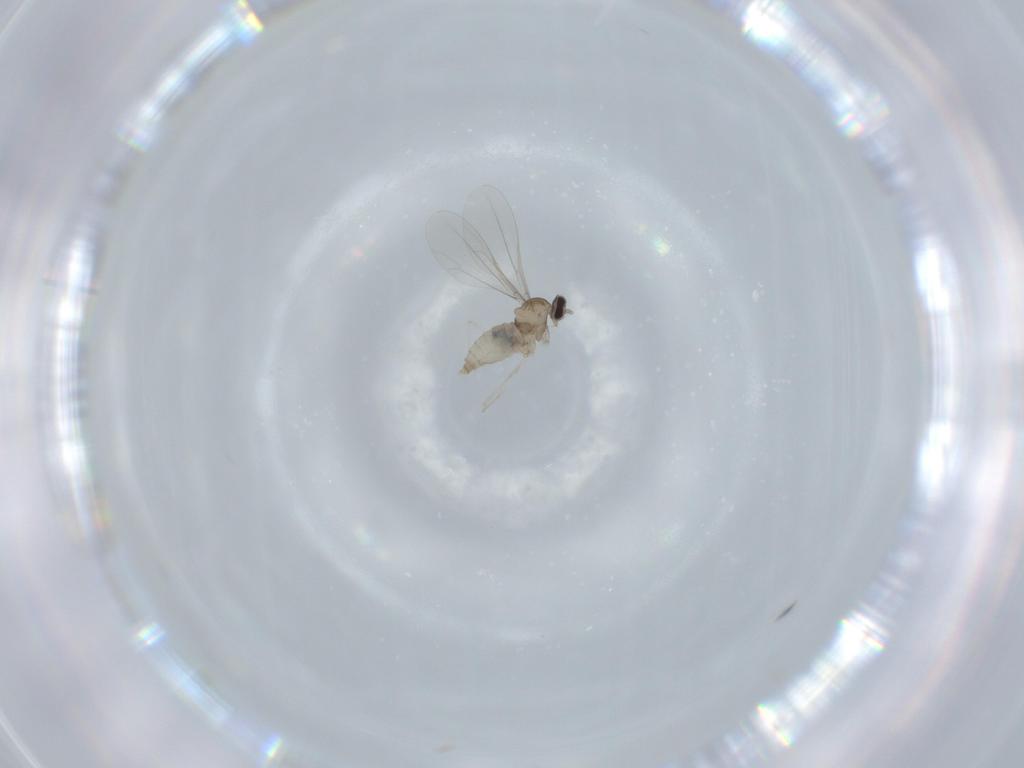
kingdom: Animalia
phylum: Arthropoda
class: Insecta
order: Diptera
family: Cecidomyiidae
